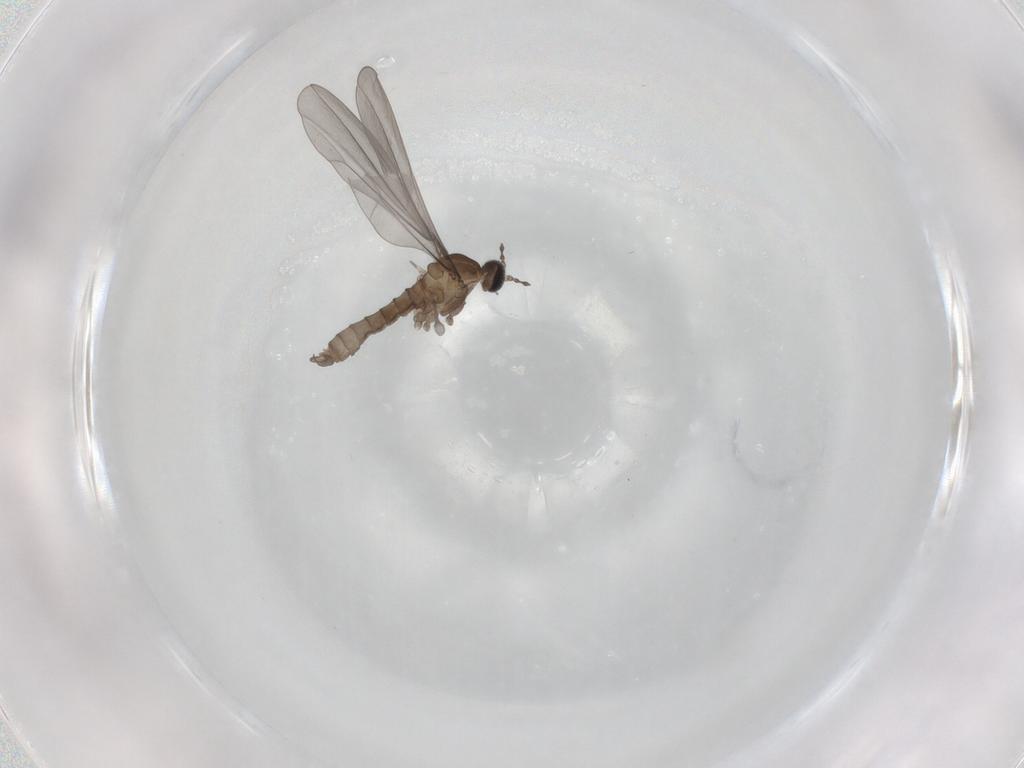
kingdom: Animalia
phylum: Arthropoda
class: Insecta
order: Diptera
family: Cecidomyiidae
